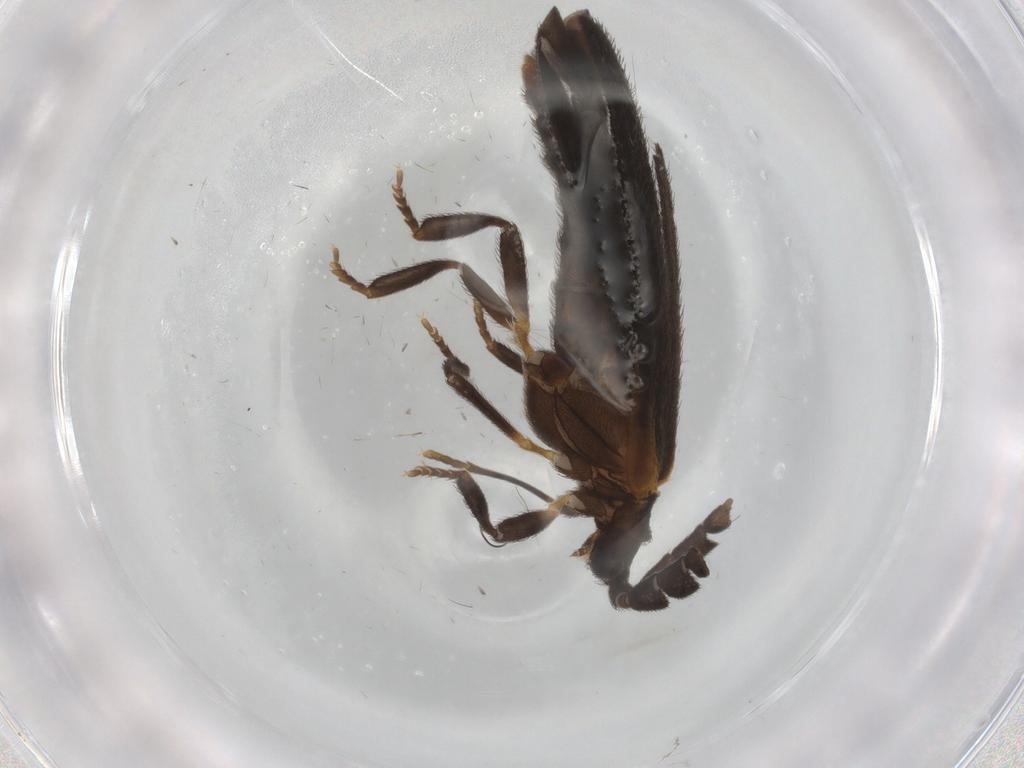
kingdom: Animalia
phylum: Arthropoda
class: Insecta
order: Coleoptera
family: Lycidae
